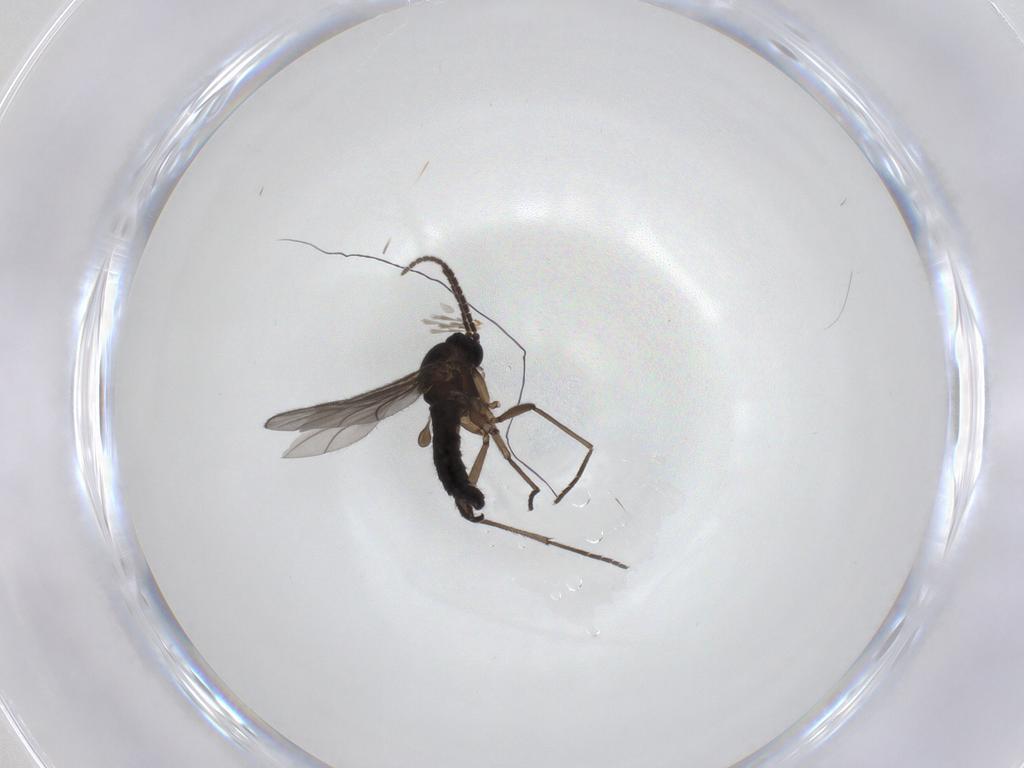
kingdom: Animalia
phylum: Arthropoda
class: Insecta
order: Diptera
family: Sciaridae
